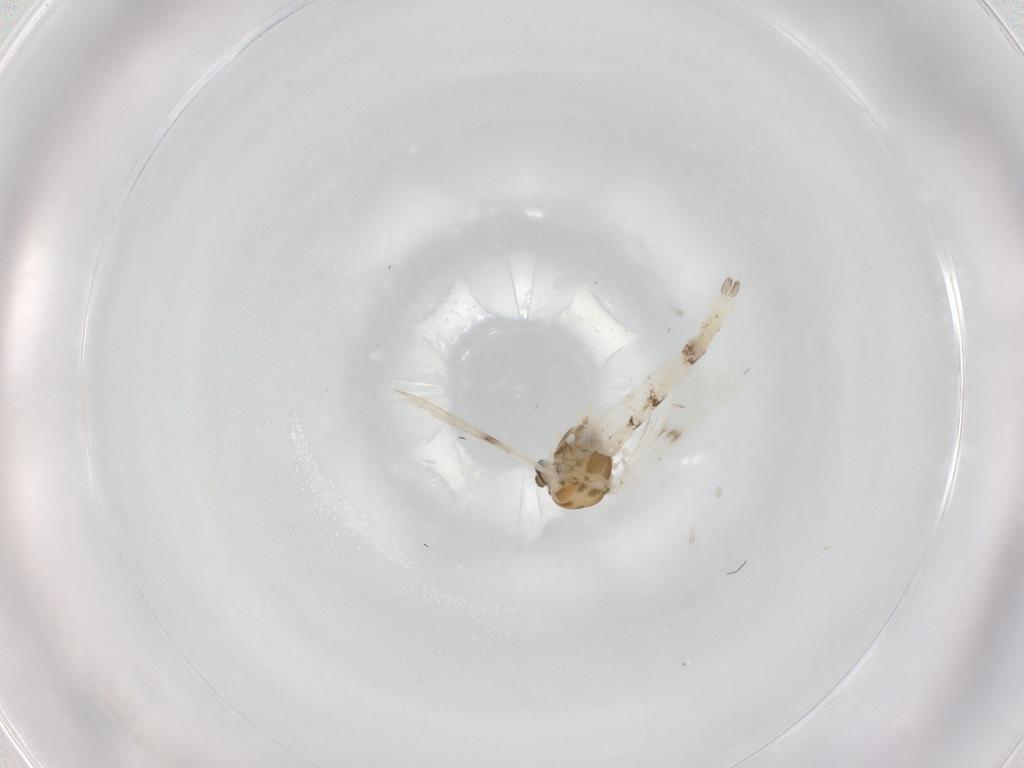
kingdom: Animalia
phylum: Arthropoda
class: Insecta
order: Diptera
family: Chironomidae
